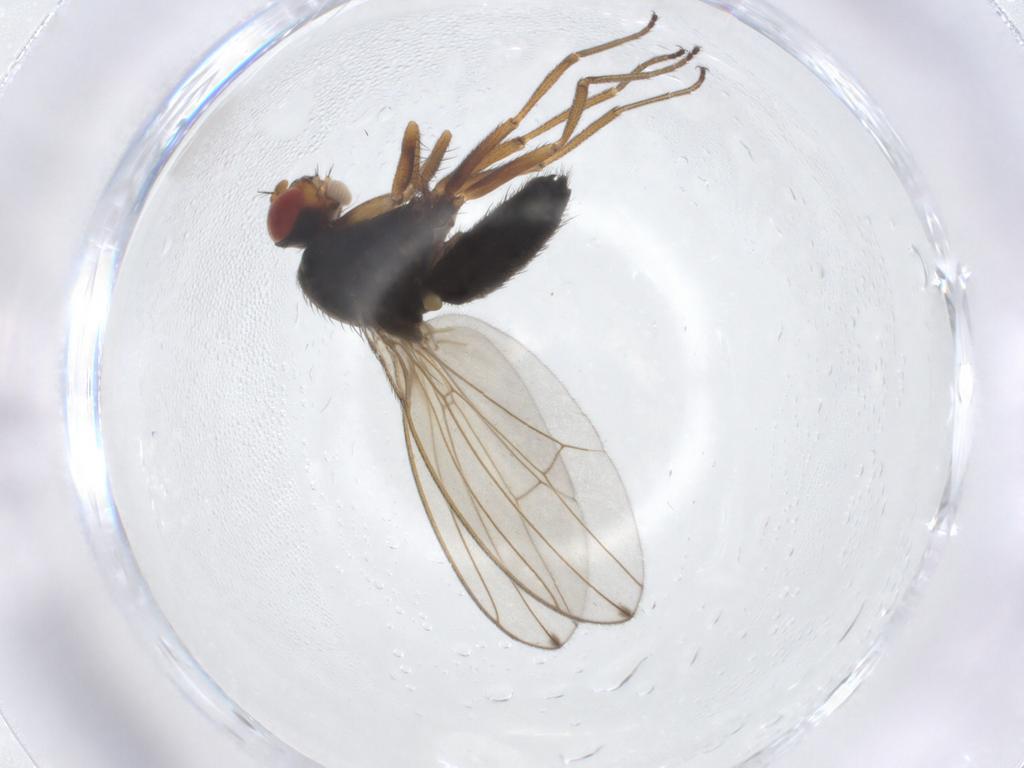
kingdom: Animalia
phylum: Arthropoda
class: Insecta
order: Diptera
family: Drosophilidae
